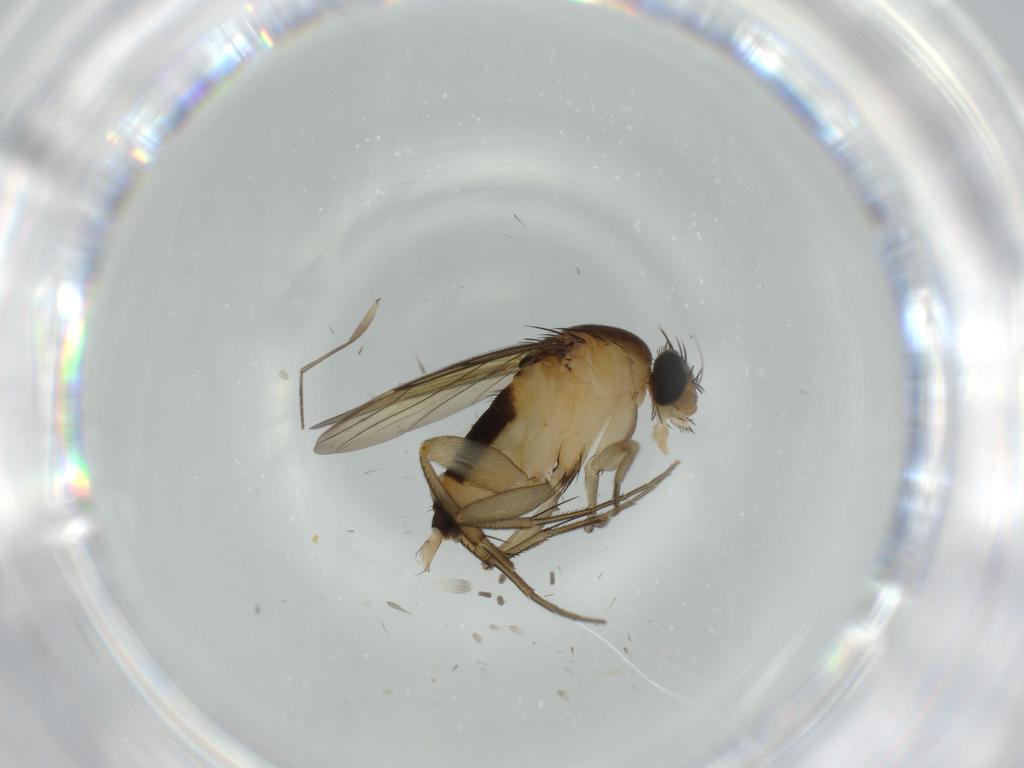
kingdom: Animalia
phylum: Arthropoda
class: Insecta
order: Diptera
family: Sciaridae
